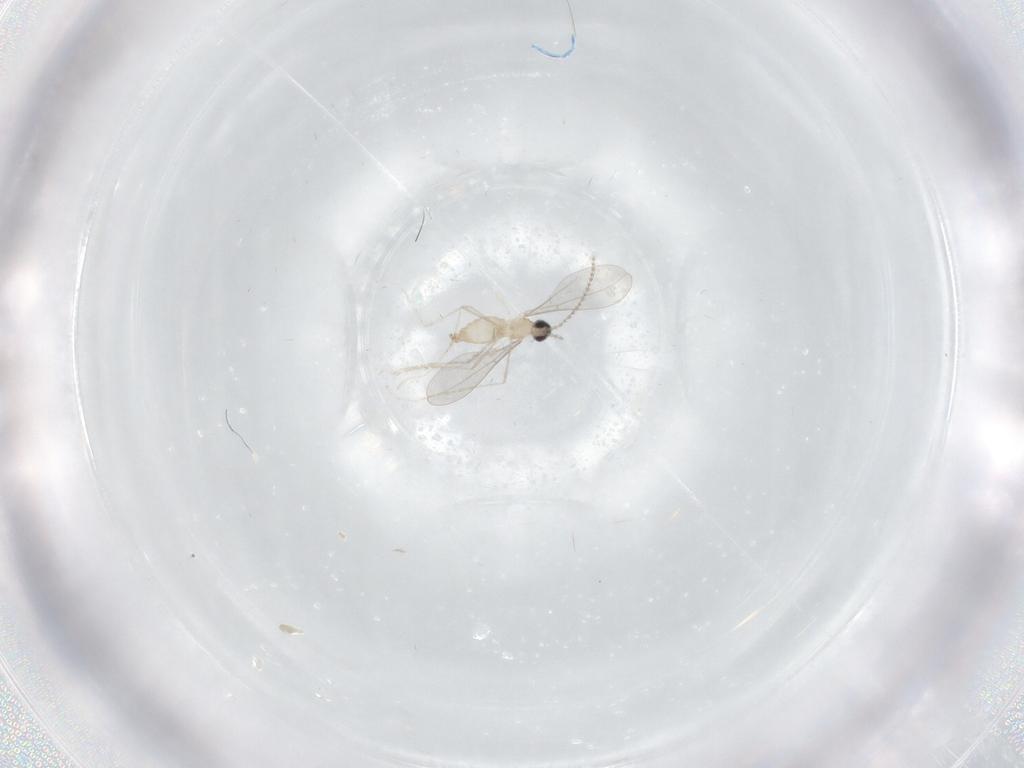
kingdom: Animalia
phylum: Arthropoda
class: Insecta
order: Diptera
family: Cecidomyiidae
